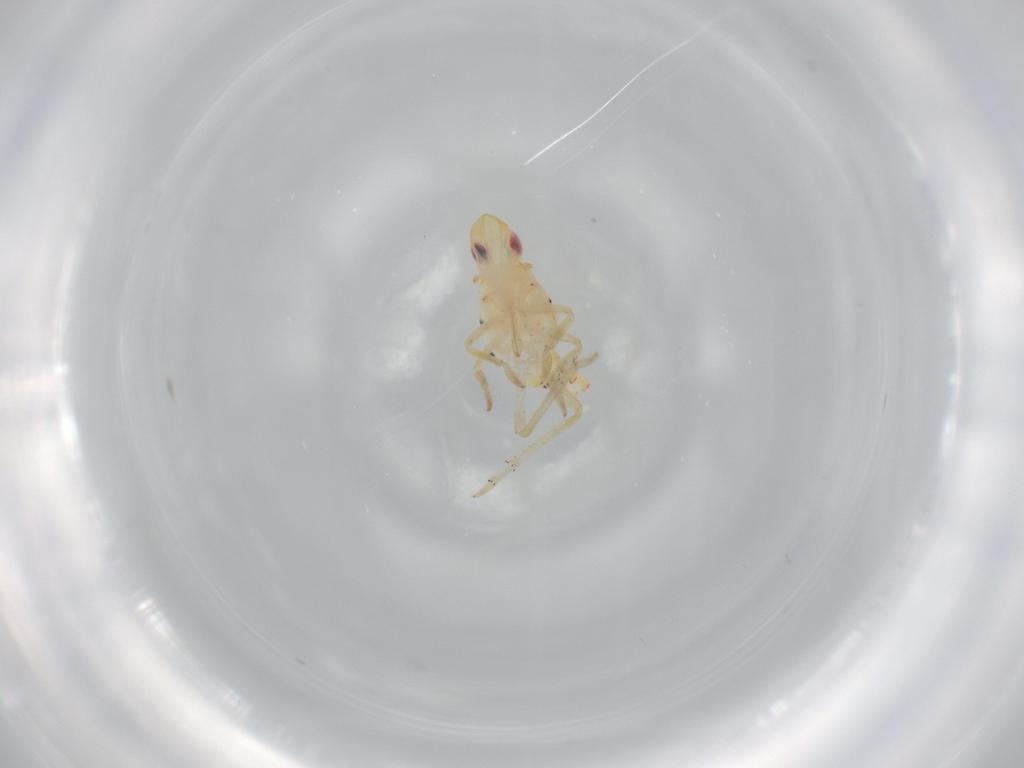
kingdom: Animalia
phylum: Arthropoda
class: Insecta
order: Hemiptera
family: Tropiduchidae
